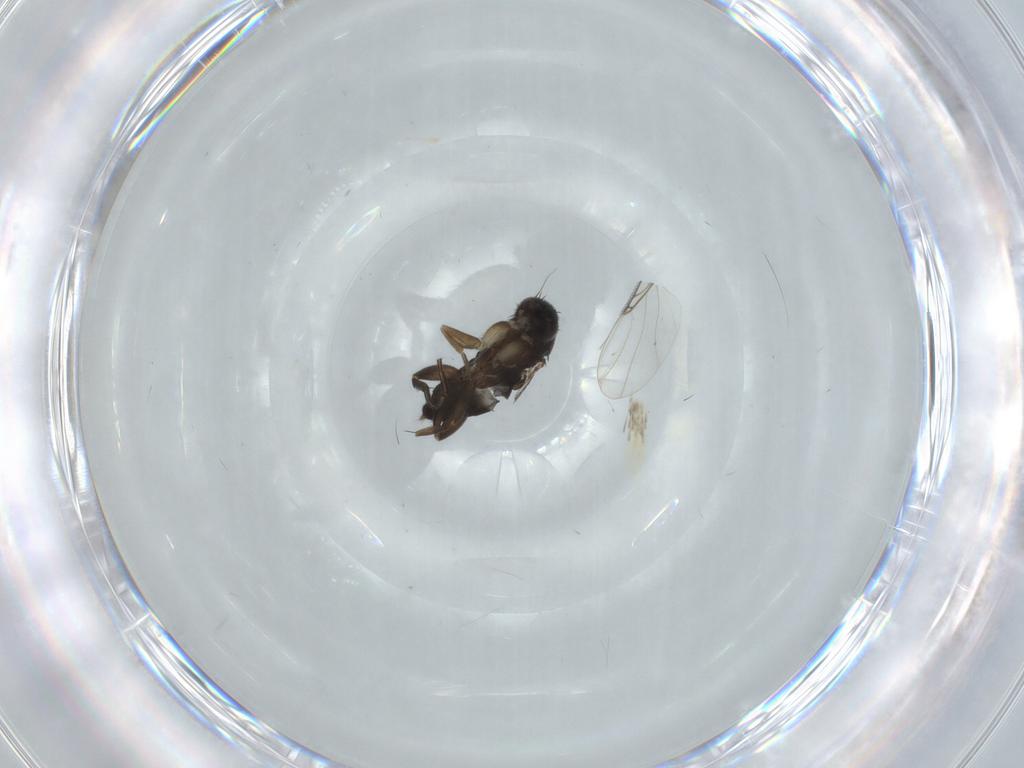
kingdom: Animalia
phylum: Arthropoda
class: Insecta
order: Diptera
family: Phoridae
